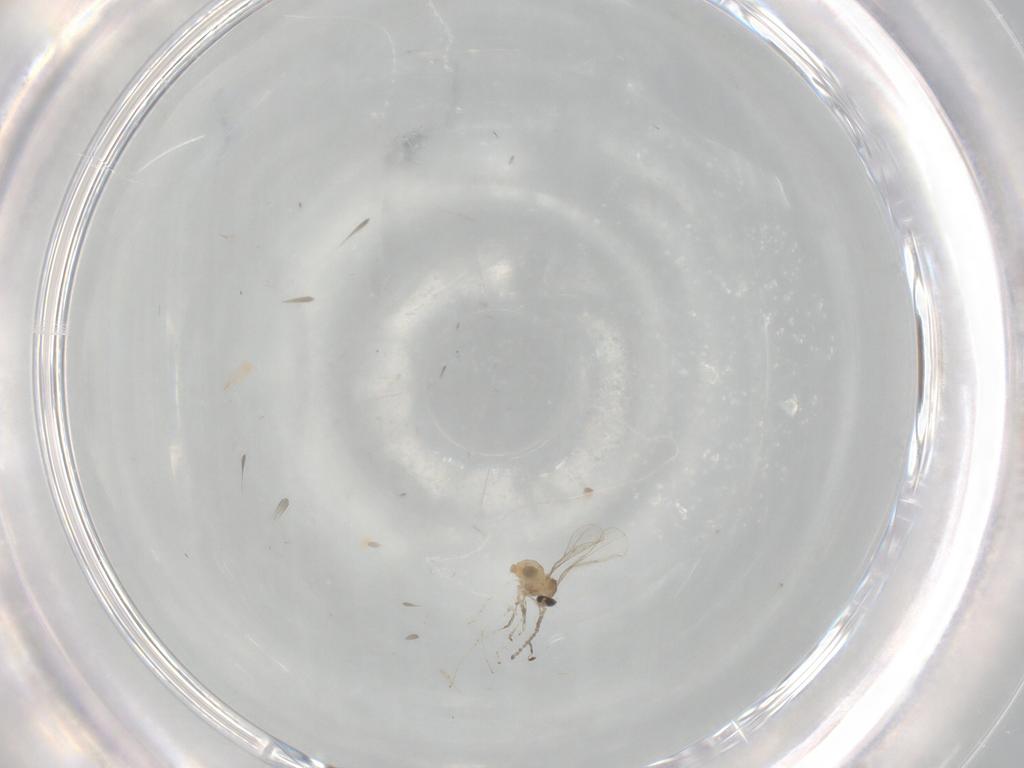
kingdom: Animalia
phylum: Arthropoda
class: Insecta
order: Diptera
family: Cecidomyiidae
